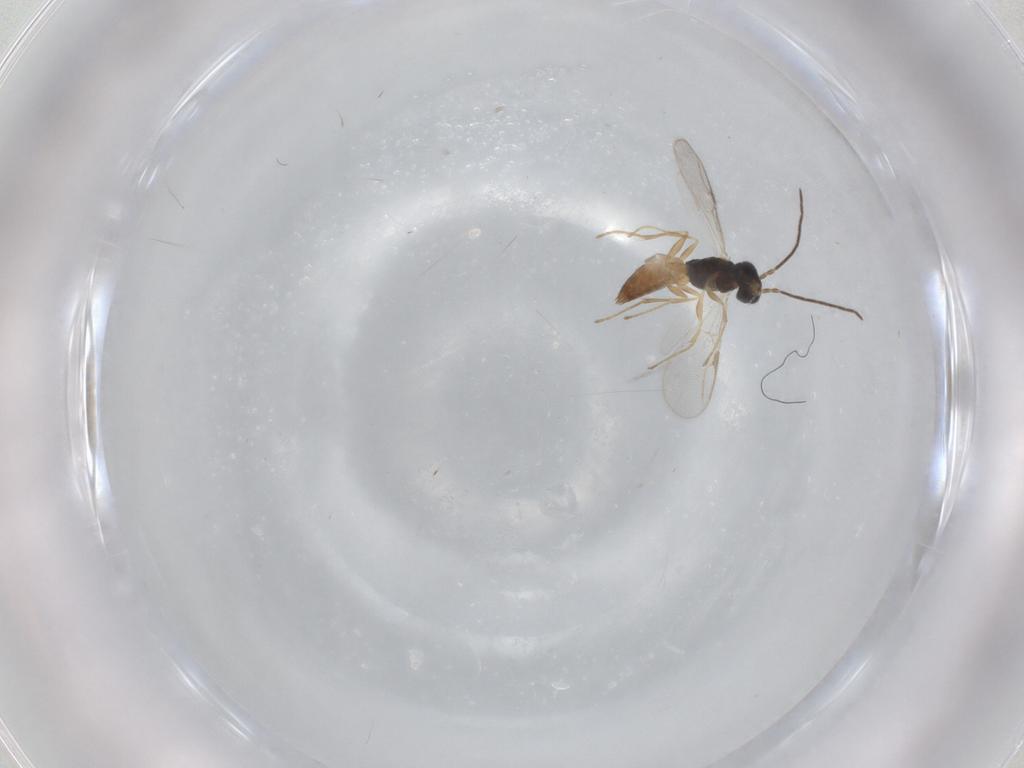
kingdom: Animalia
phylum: Arthropoda
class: Insecta
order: Hymenoptera
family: Dryinidae
